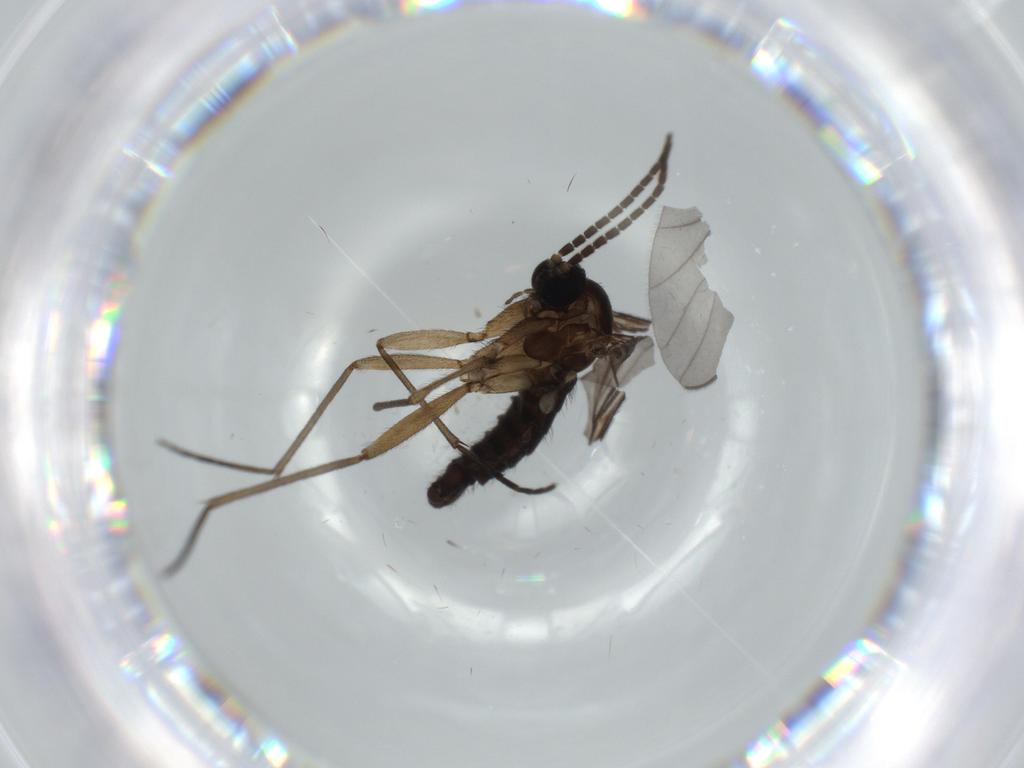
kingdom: Animalia
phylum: Arthropoda
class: Insecta
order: Diptera
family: Sciaridae
